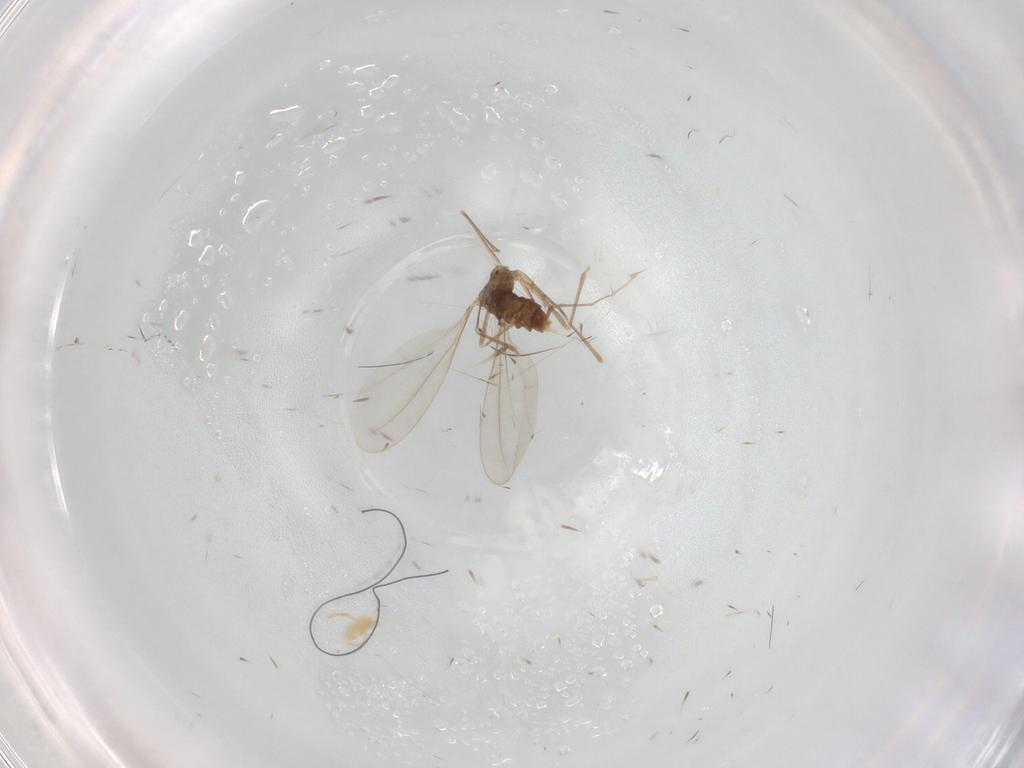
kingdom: Animalia
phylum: Arthropoda
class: Insecta
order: Diptera
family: Cecidomyiidae
